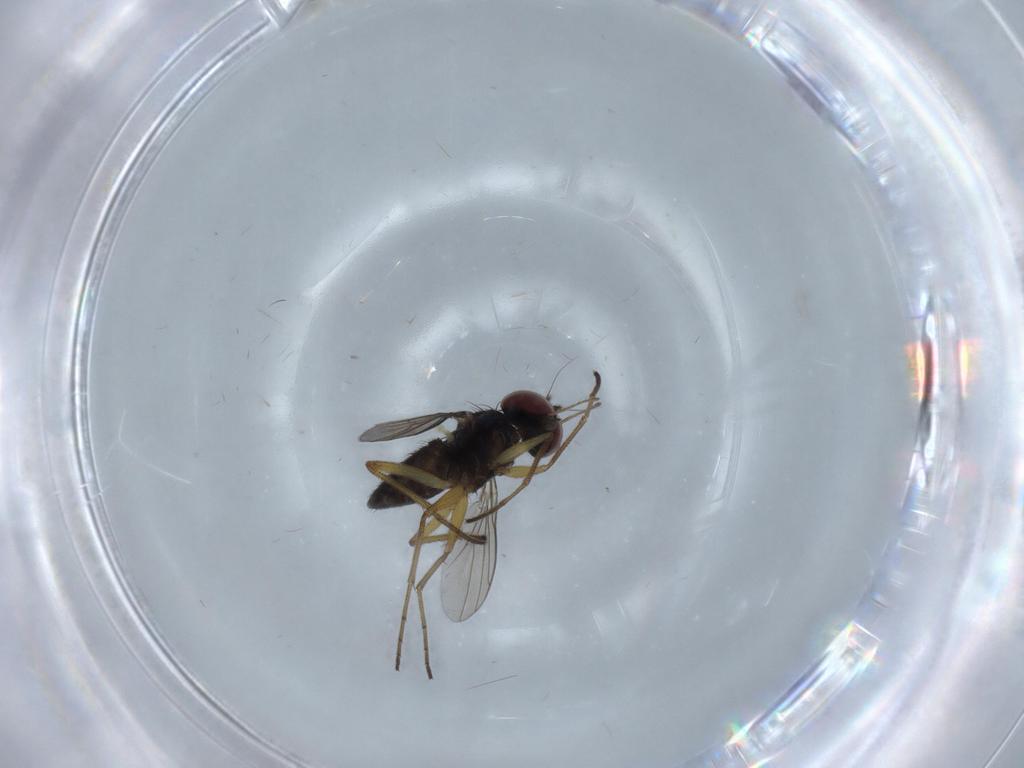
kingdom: Animalia
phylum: Arthropoda
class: Insecta
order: Diptera
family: Dolichopodidae
